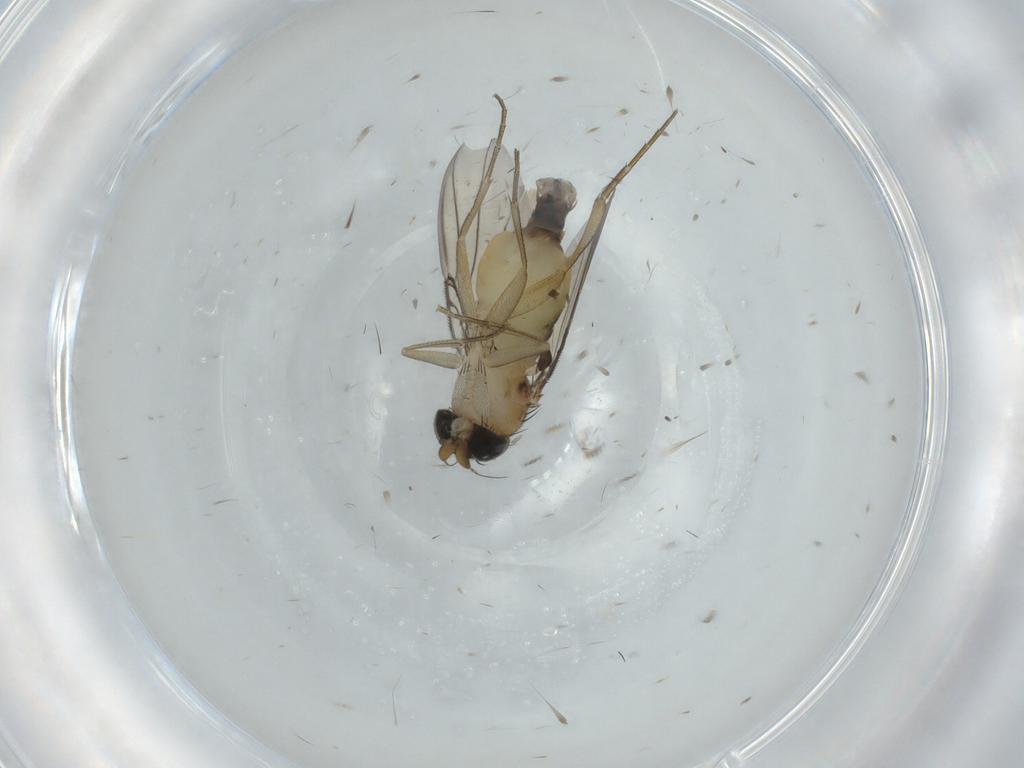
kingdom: Animalia
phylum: Arthropoda
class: Insecta
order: Diptera
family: Phoridae
